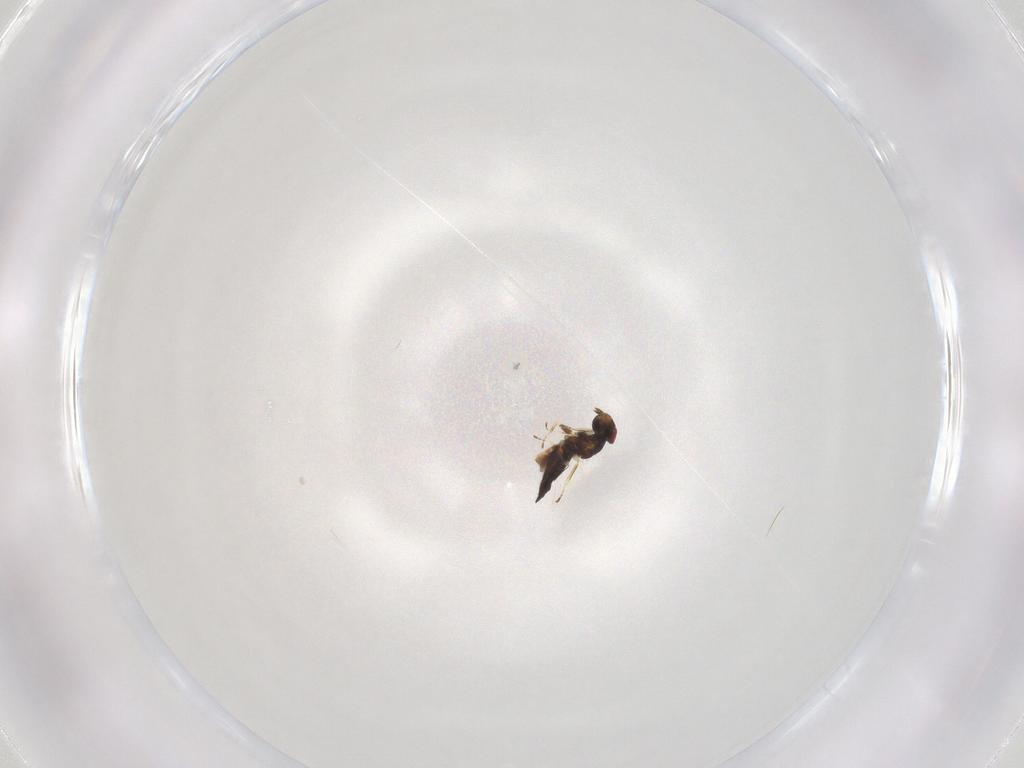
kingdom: Animalia
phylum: Arthropoda
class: Insecta
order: Hymenoptera
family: Eulophidae
